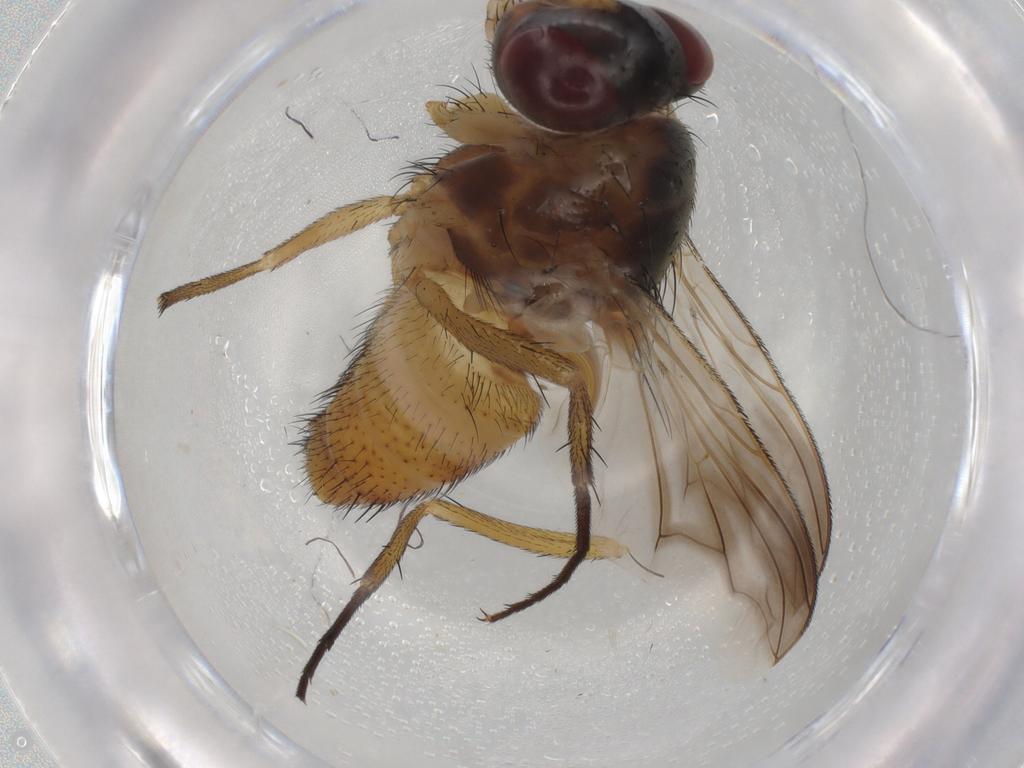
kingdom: Animalia
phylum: Arthropoda
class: Insecta
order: Diptera
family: Calliphoridae
